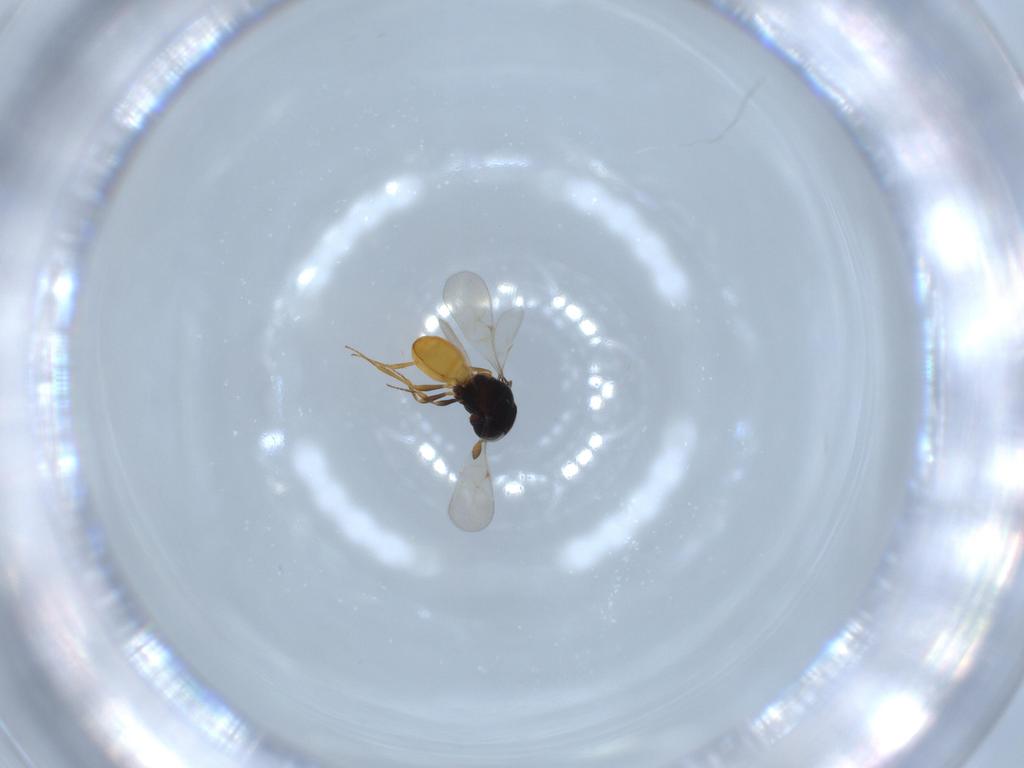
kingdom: Animalia
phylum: Arthropoda
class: Insecta
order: Hymenoptera
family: Scelionidae
